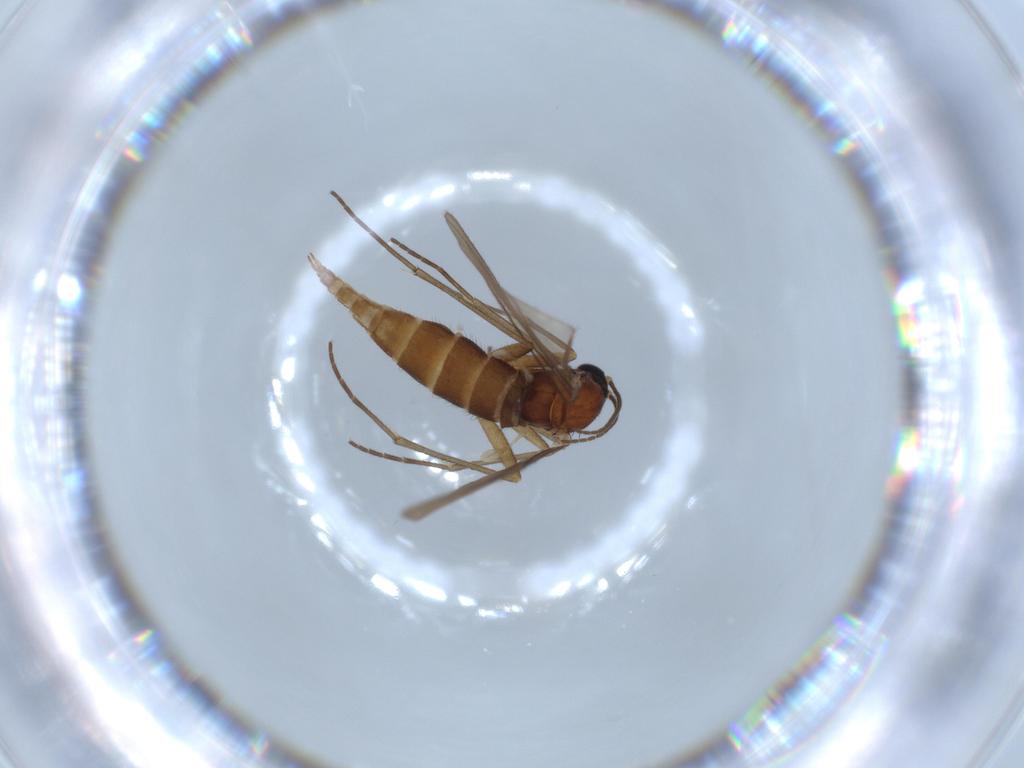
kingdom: Animalia
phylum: Arthropoda
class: Insecta
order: Diptera
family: Sciaridae
